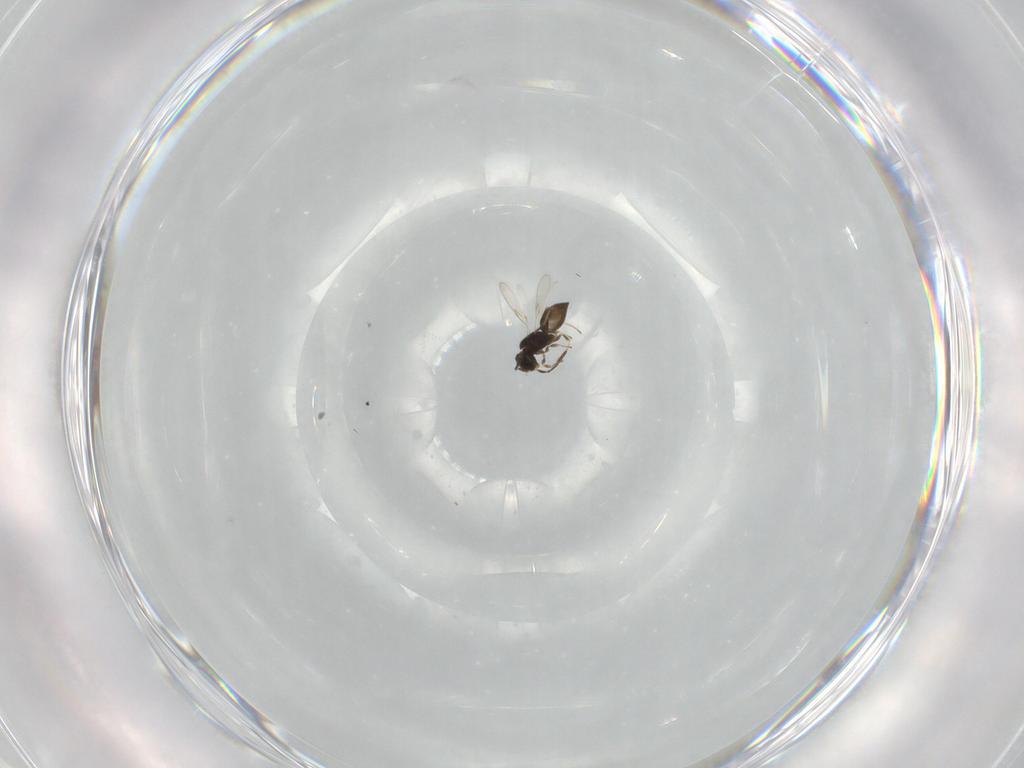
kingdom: Animalia
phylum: Arthropoda
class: Insecta
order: Hymenoptera
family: Scelionidae
